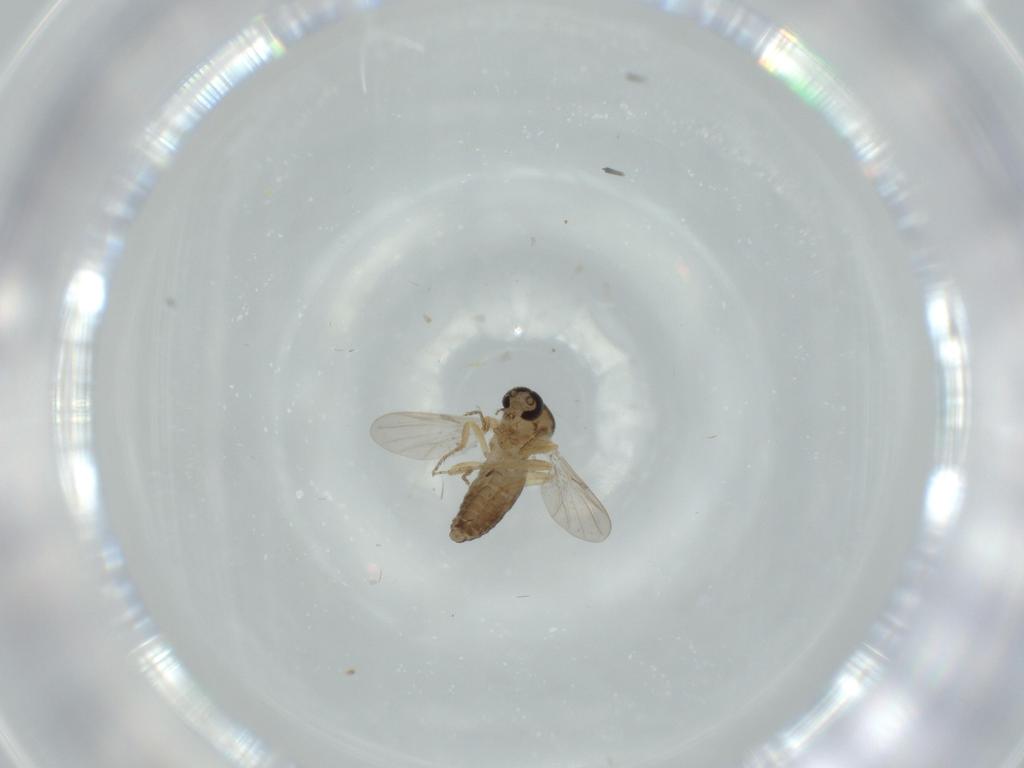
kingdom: Animalia
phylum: Arthropoda
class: Insecta
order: Diptera
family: Ceratopogonidae
